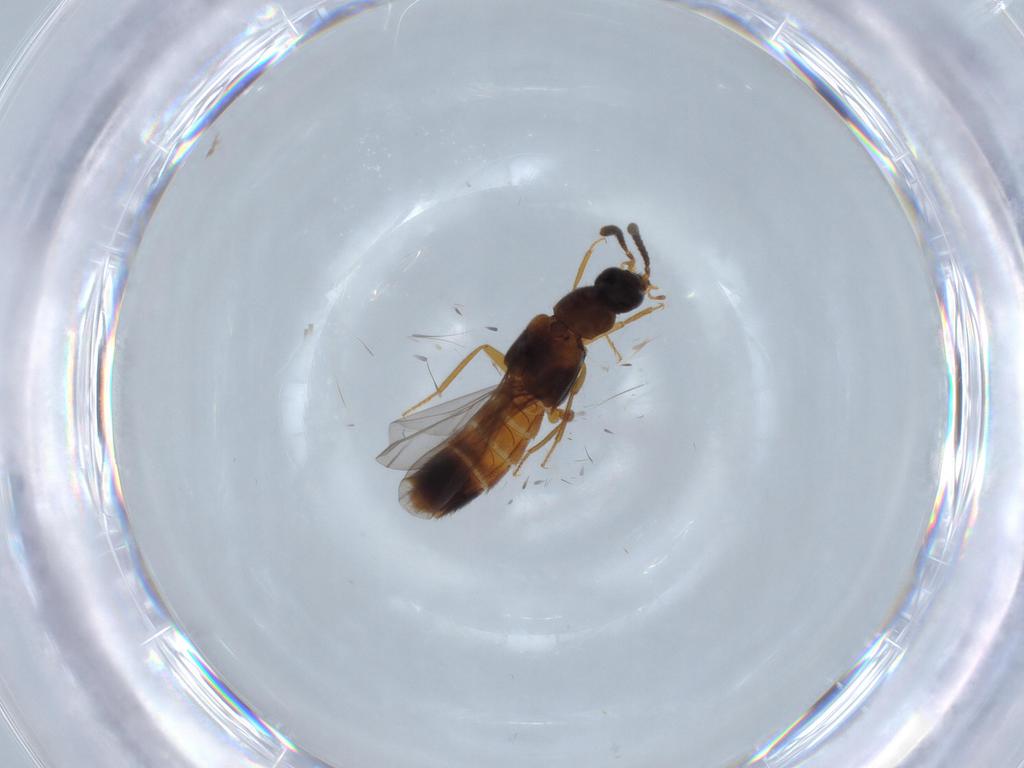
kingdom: Animalia
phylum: Arthropoda
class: Insecta
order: Coleoptera
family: Staphylinidae
